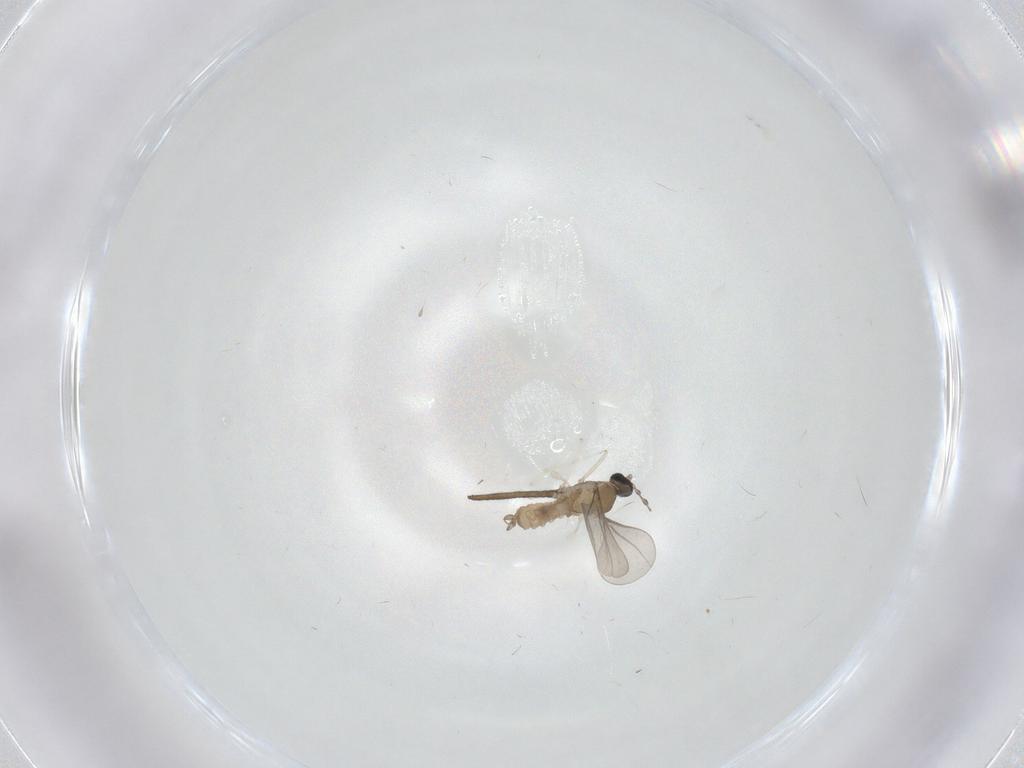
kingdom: Animalia
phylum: Arthropoda
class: Insecta
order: Diptera
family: Cecidomyiidae
